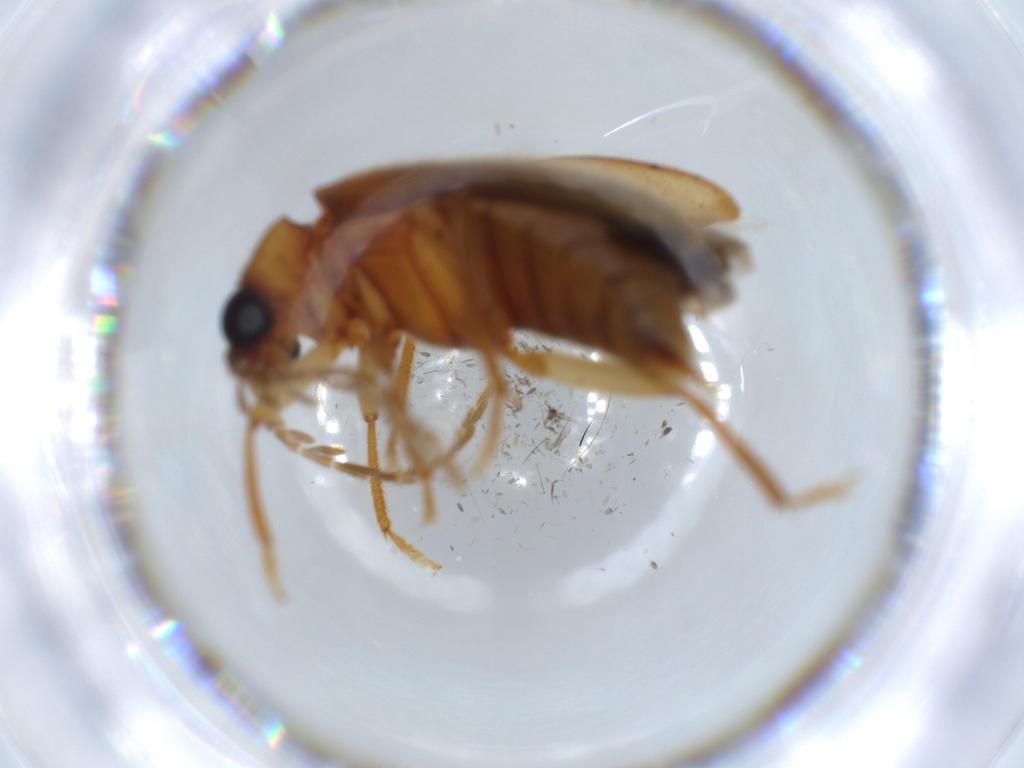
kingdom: Animalia
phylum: Arthropoda
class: Insecta
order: Coleoptera
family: Ptilodactylidae
